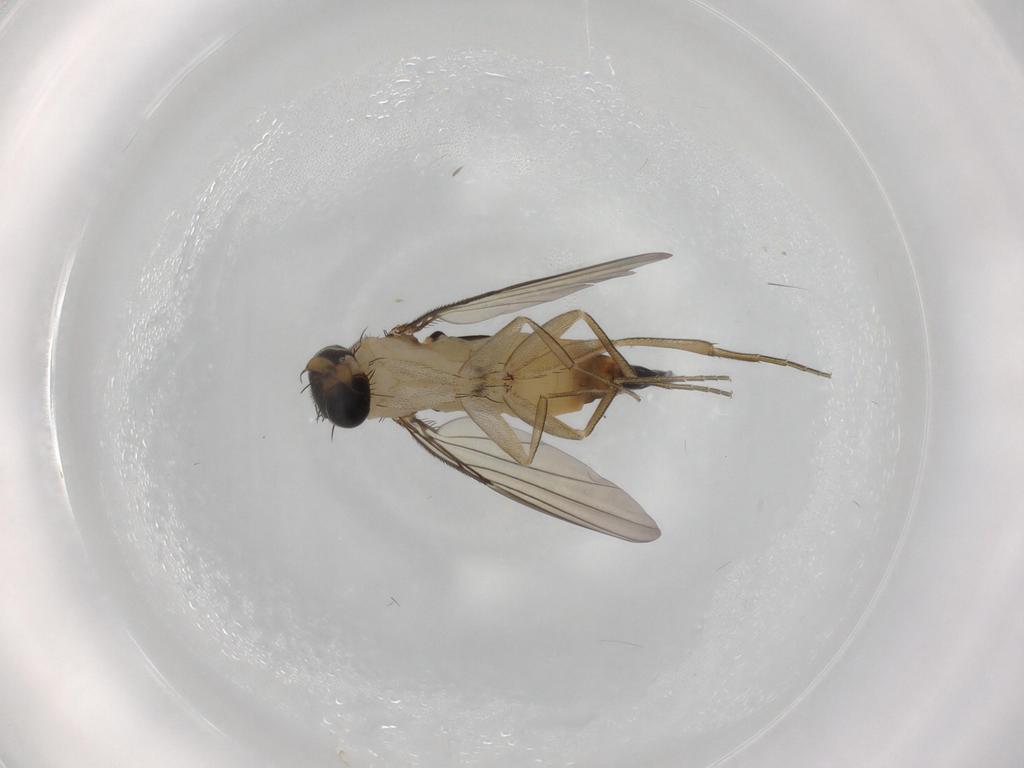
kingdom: Animalia
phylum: Arthropoda
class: Insecta
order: Diptera
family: Phoridae
